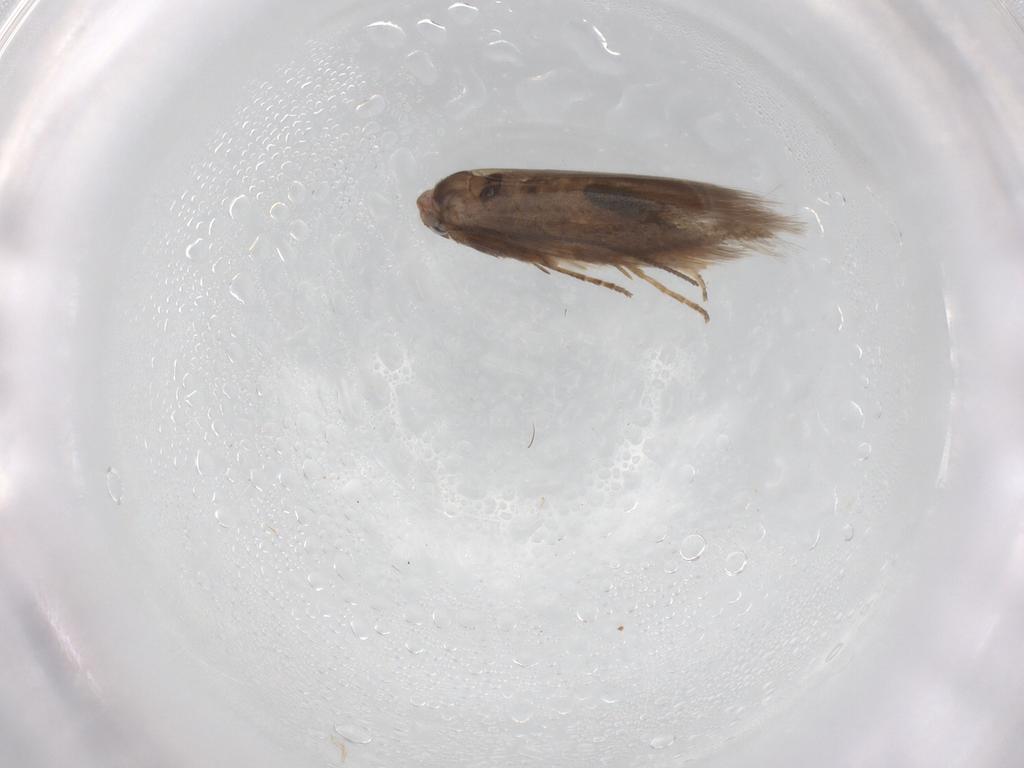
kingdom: Animalia
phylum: Arthropoda
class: Insecta
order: Lepidoptera
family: Bucculatricidae
